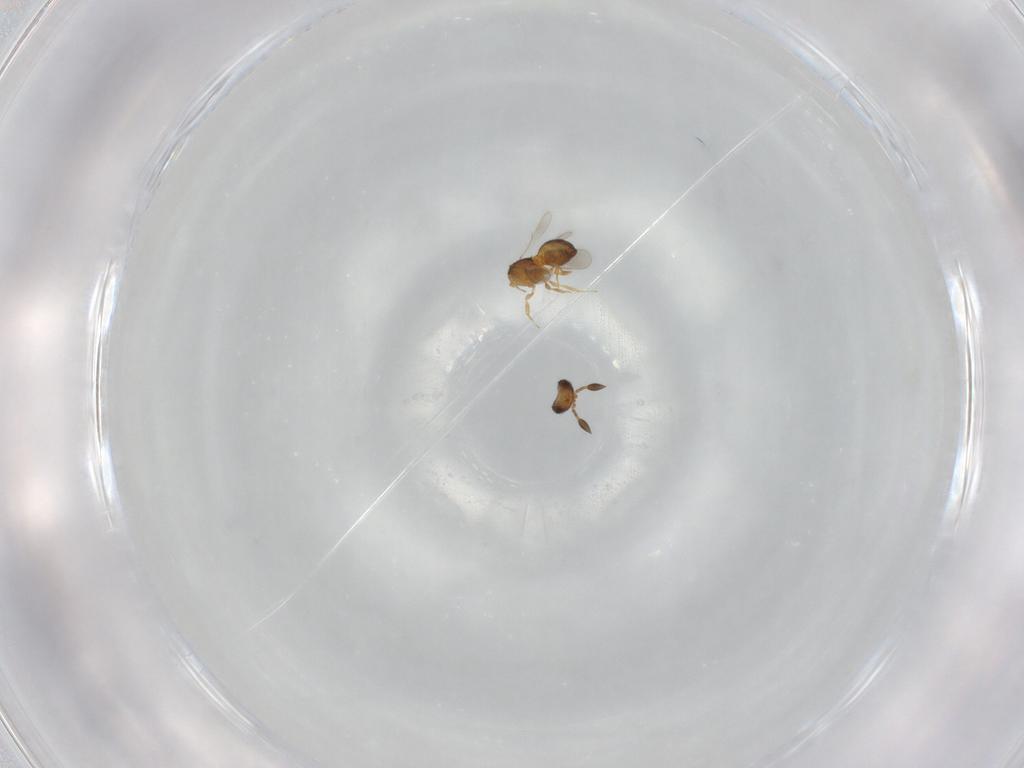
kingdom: Animalia
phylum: Arthropoda
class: Insecta
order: Hymenoptera
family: Scelionidae
